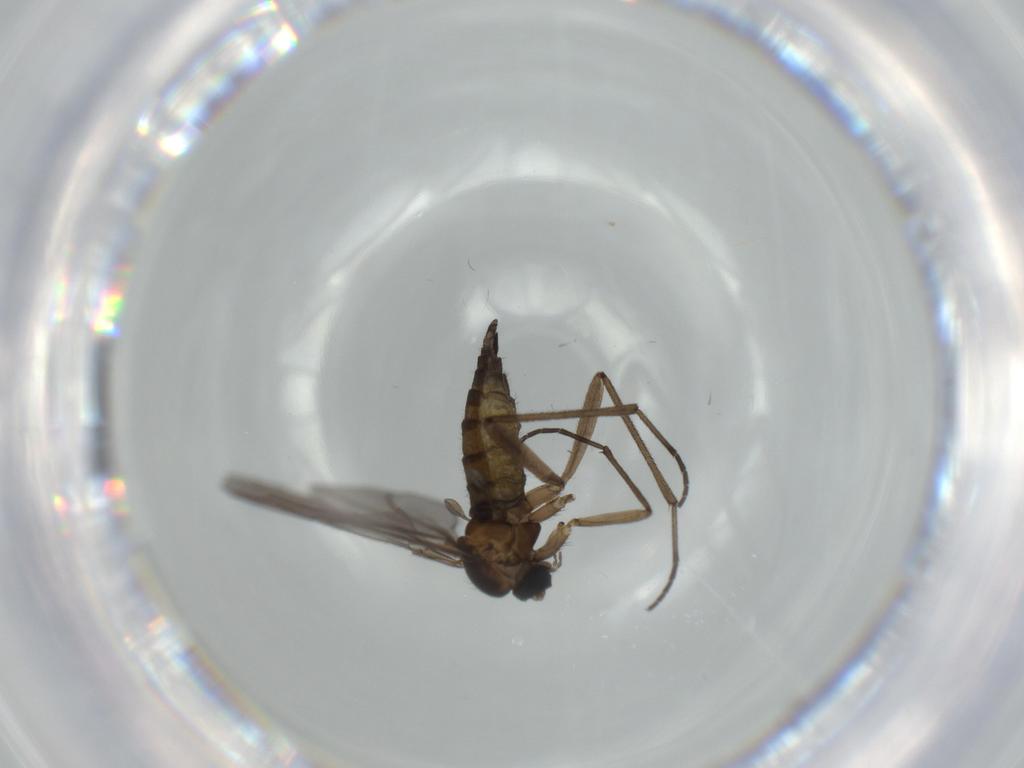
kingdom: Animalia
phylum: Arthropoda
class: Insecta
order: Diptera
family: Sciaridae
